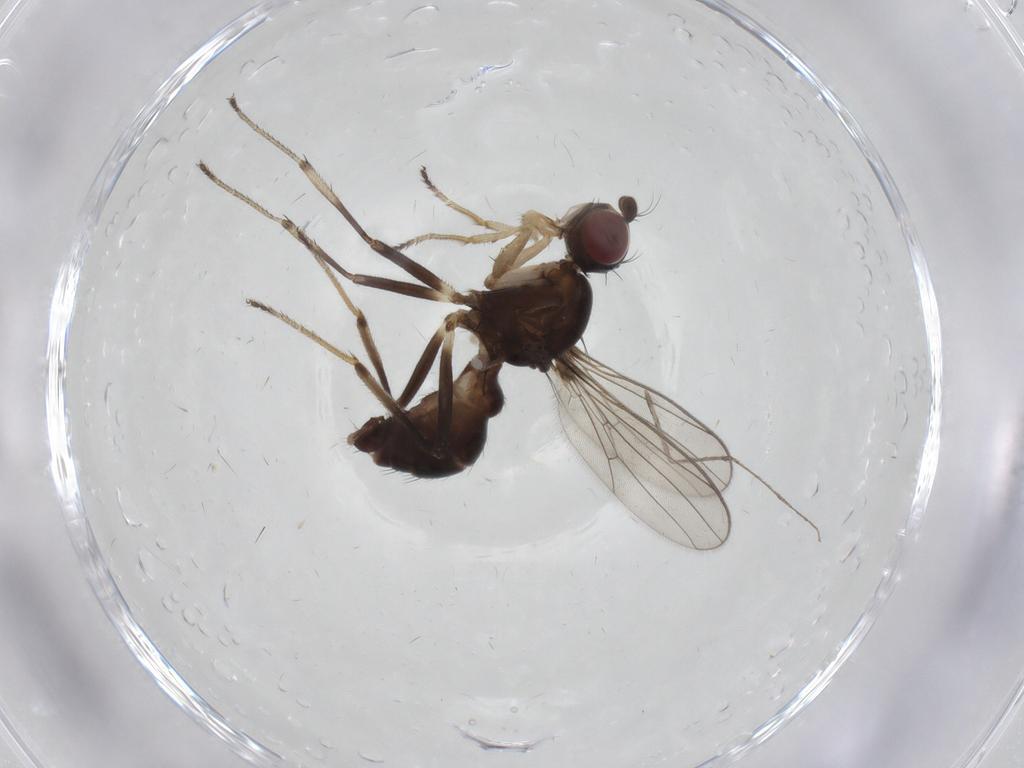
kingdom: Animalia
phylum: Arthropoda
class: Insecta
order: Diptera
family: Sepsidae
